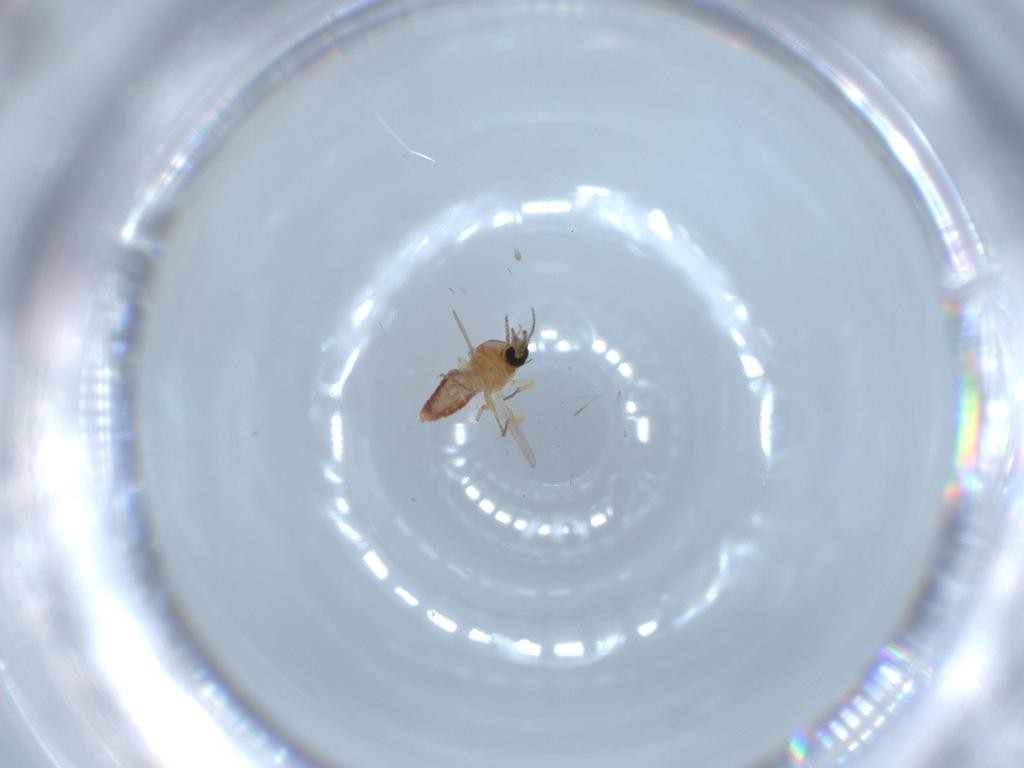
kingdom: Animalia
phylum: Arthropoda
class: Insecta
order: Diptera
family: Ceratopogonidae
